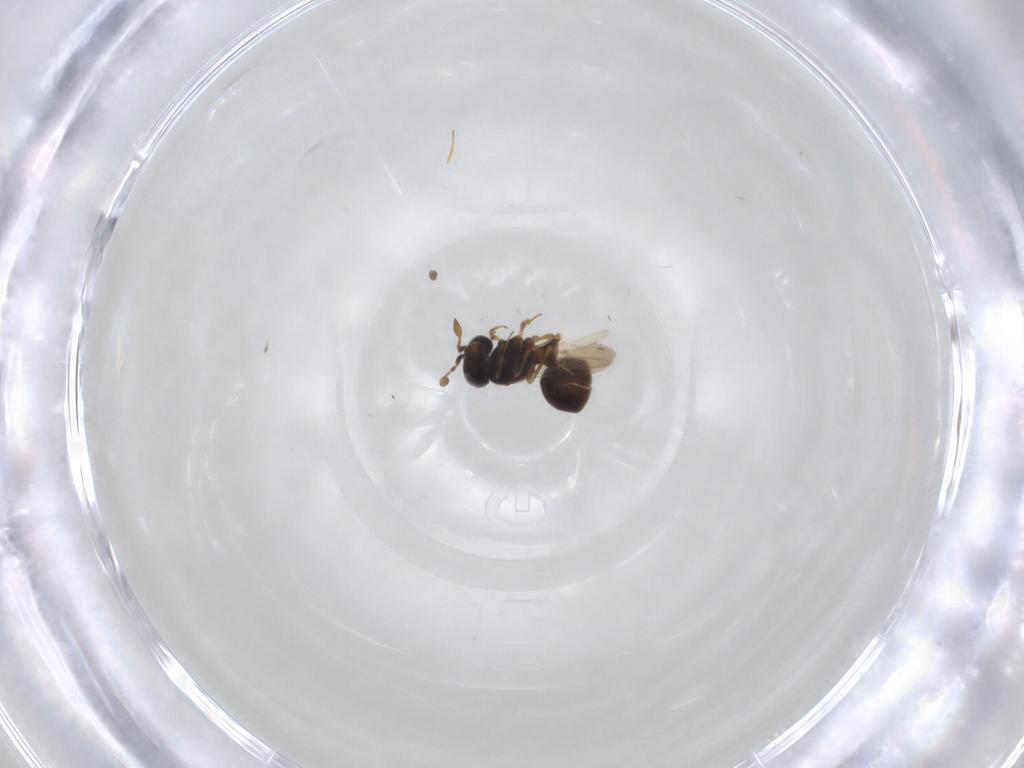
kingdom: Animalia
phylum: Arthropoda
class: Insecta
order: Hymenoptera
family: Scelionidae
